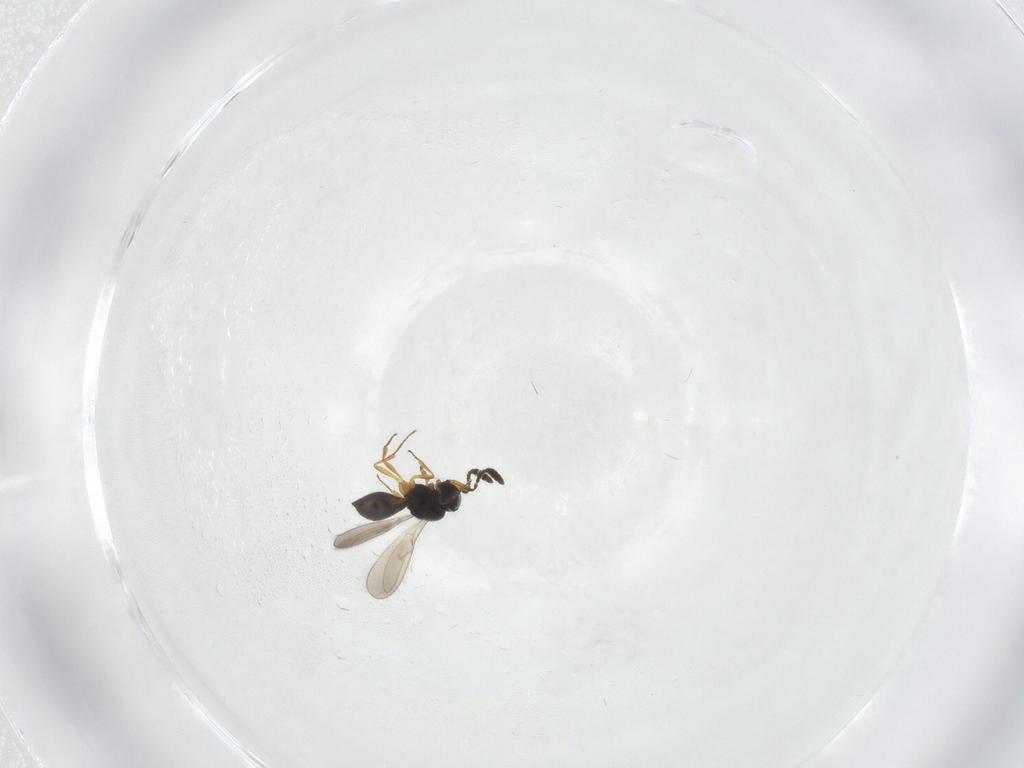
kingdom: Animalia
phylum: Arthropoda
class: Insecta
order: Hymenoptera
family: Scelionidae
